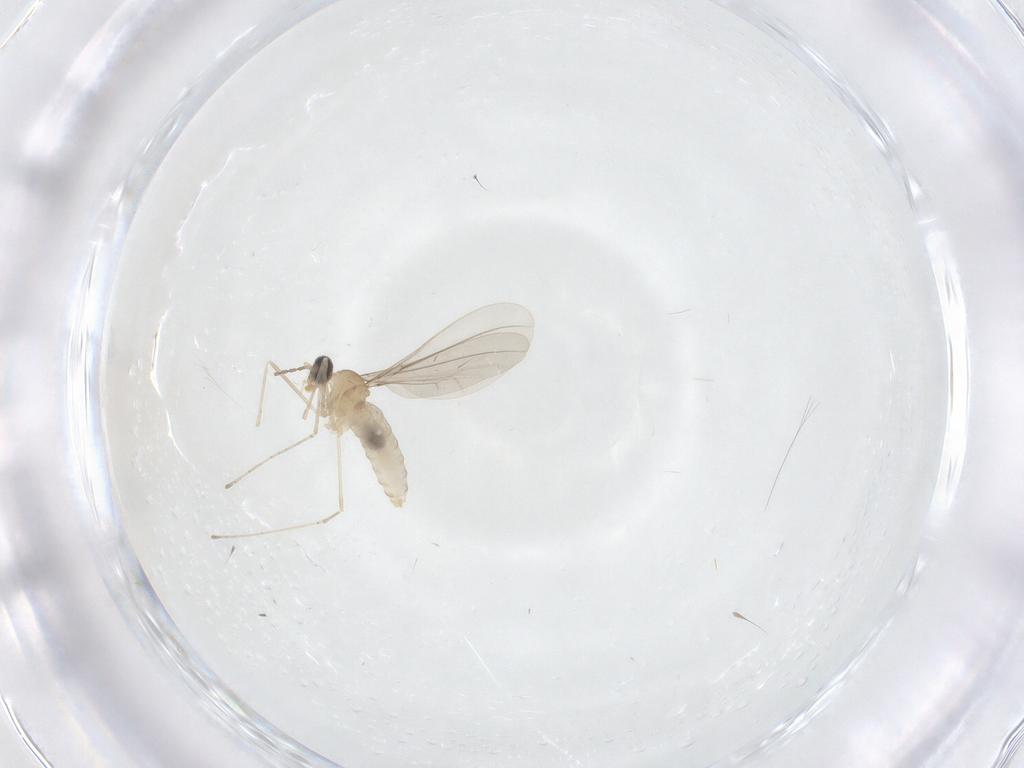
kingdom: Animalia
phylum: Arthropoda
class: Insecta
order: Diptera
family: Cecidomyiidae
